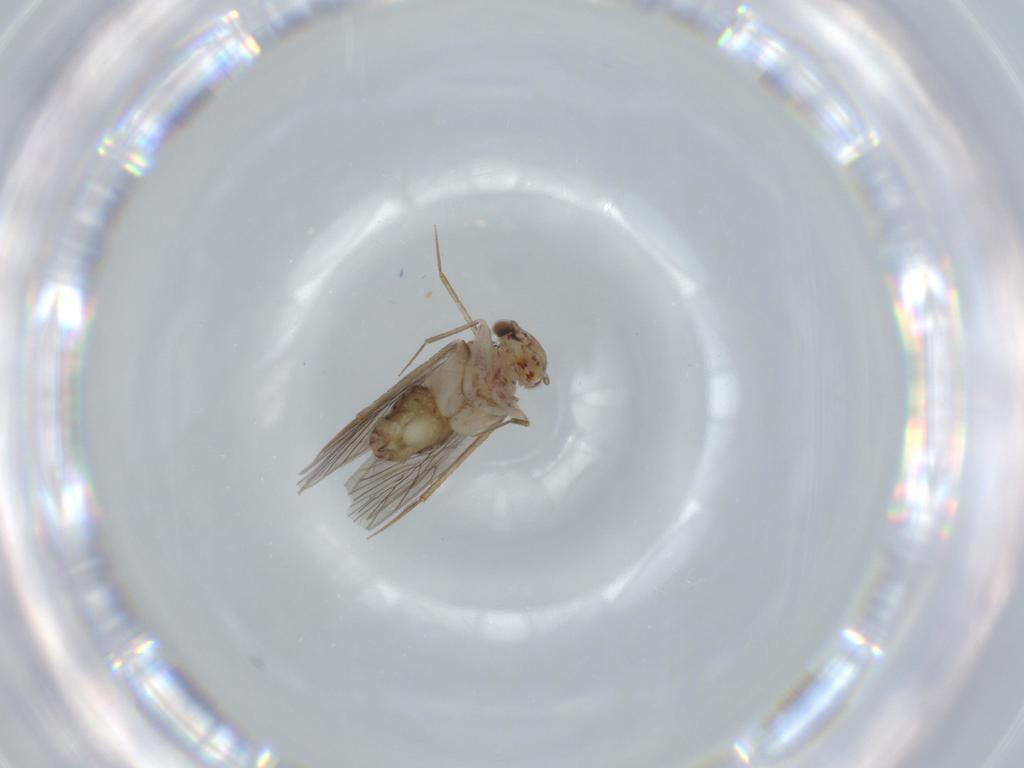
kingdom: Animalia
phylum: Arthropoda
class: Insecta
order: Psocodea
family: Lepidopsocidae
